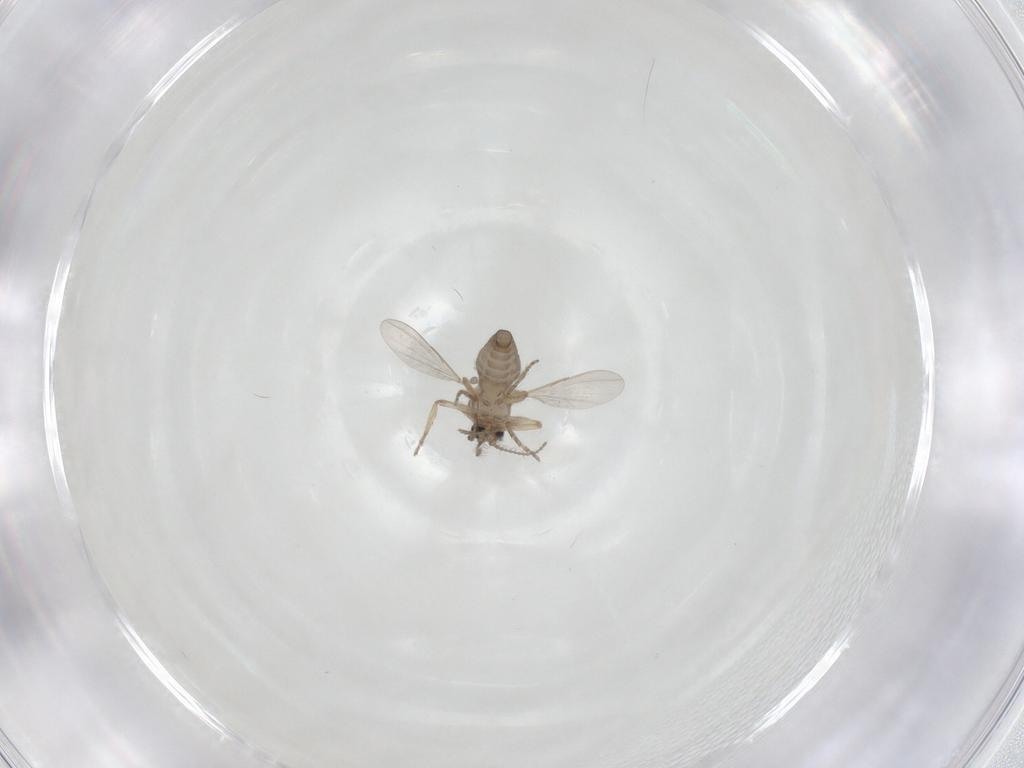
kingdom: Animalia
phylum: Arthropoda
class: Insecta
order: Diptera
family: Ceratopogonidae
